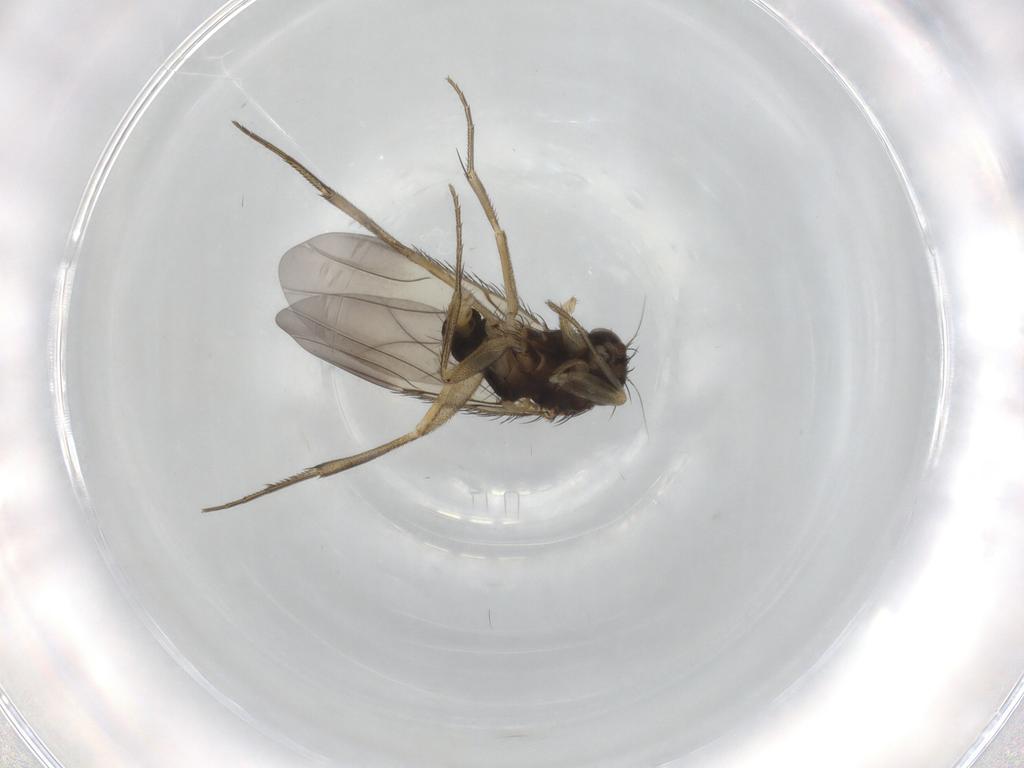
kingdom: Animalia
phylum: Arthropoda
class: Insecta
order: Diptera
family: Phoridae
